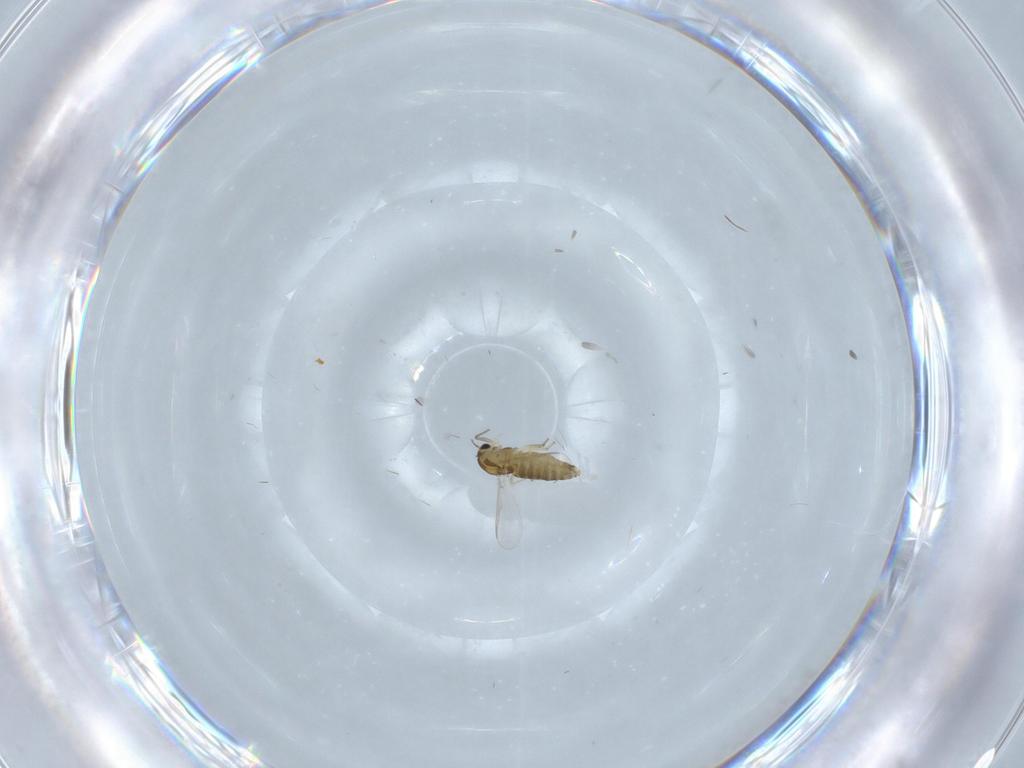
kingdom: Animalia
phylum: Arthropoda
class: Insecta
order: Diptera
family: Chironomidae
